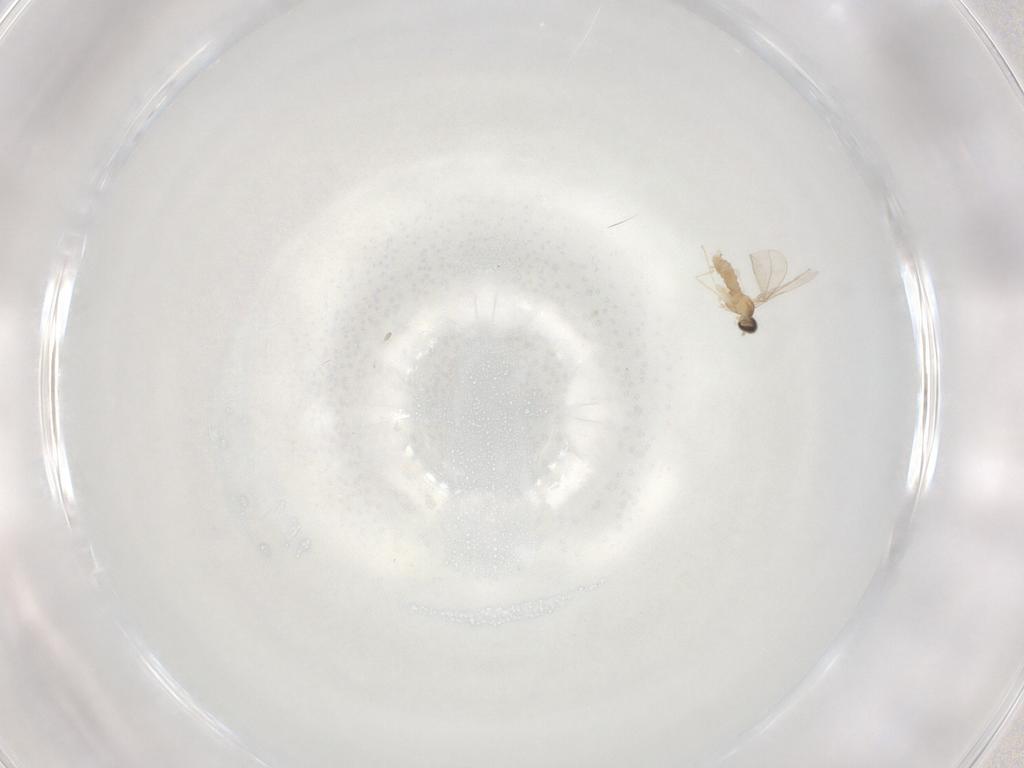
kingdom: Animalia
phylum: Arthropoda
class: Insecta
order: Diptera
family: Cecidomyiidae
